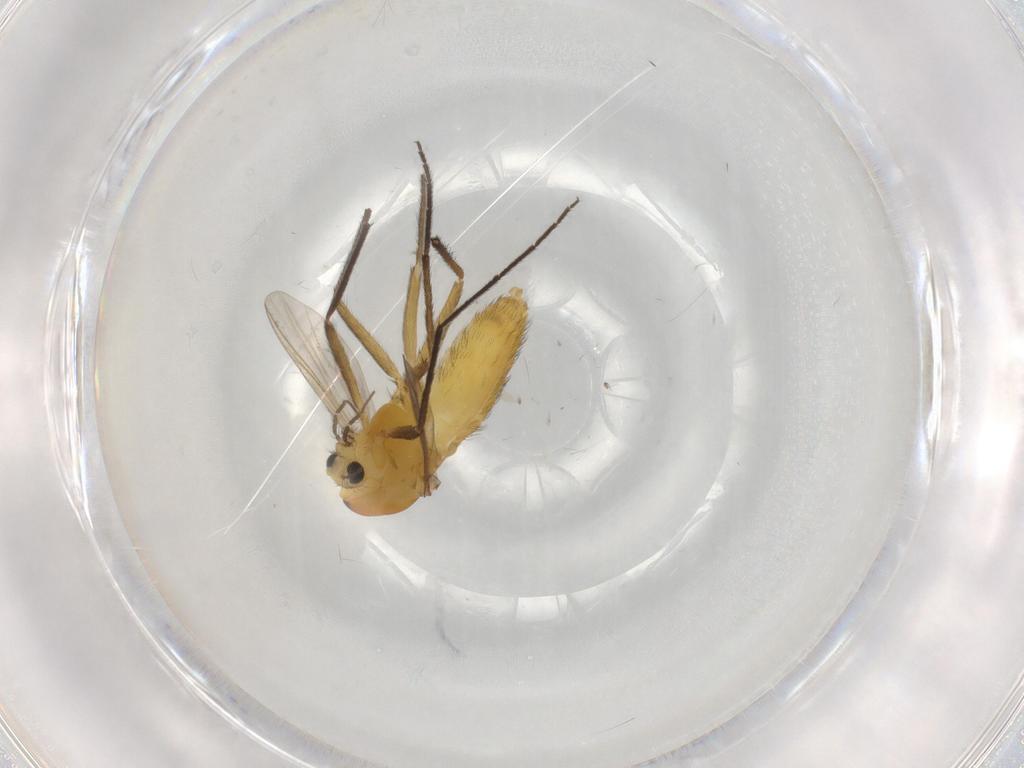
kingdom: Animalia
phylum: Arthropoda
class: Insecta
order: Diptera
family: Chironomidae
